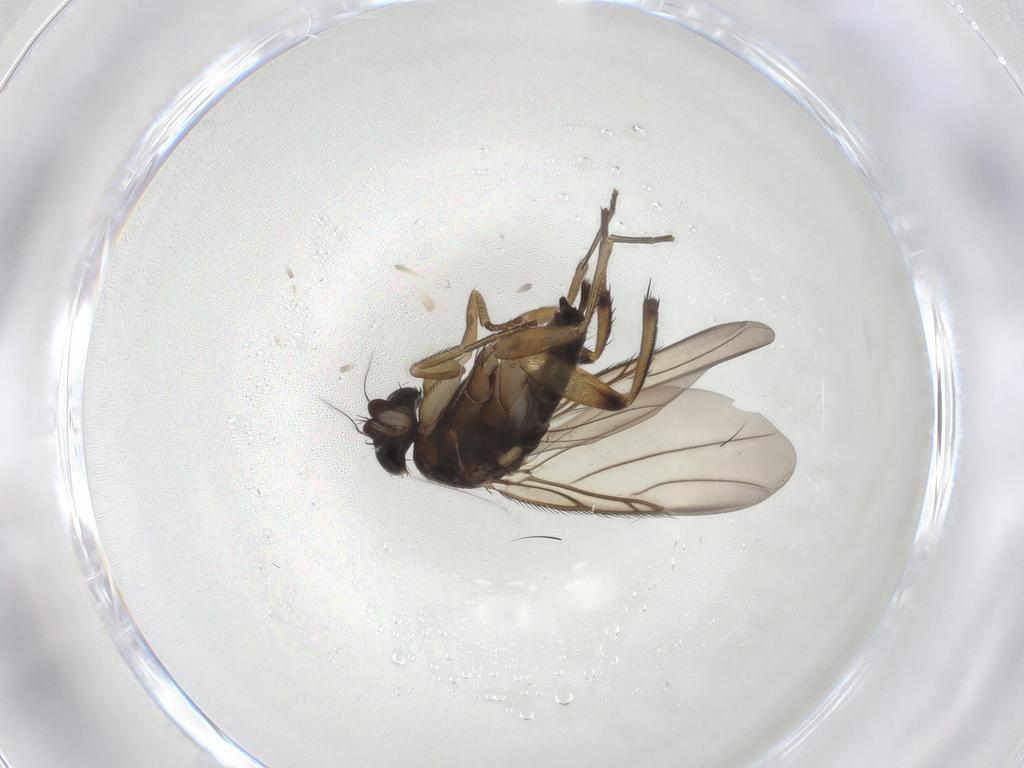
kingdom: Animalia
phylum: Arthropoda
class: Insecta
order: Diptera
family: Phoridae
